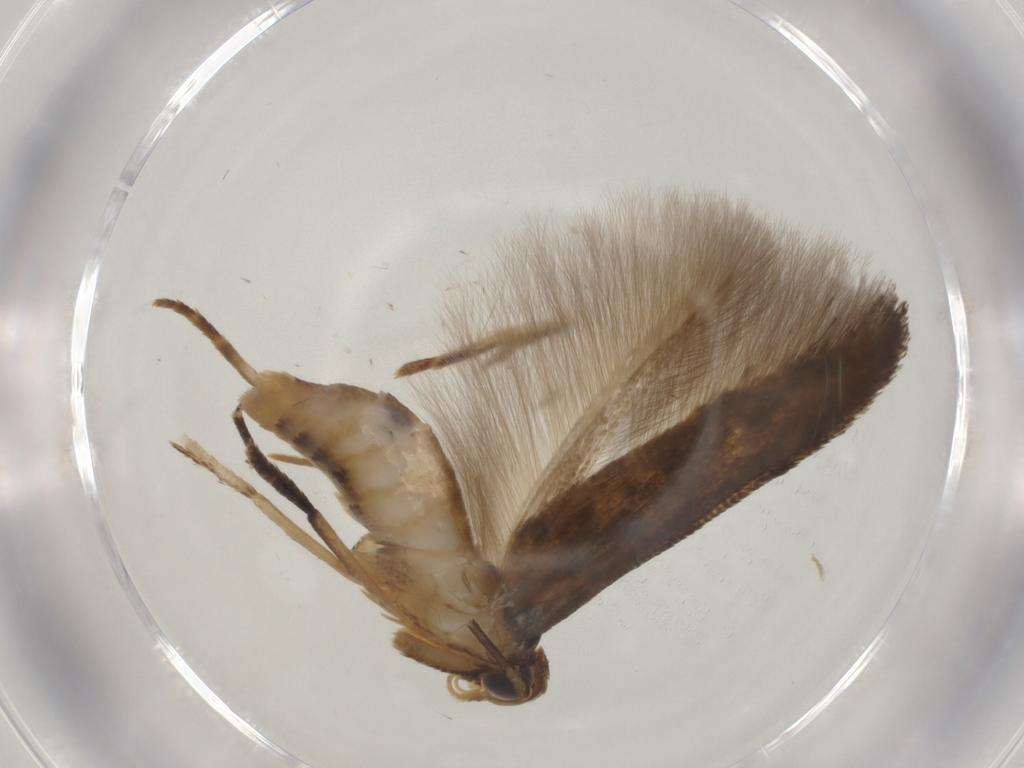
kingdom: Animalia
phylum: Arthropoda
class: Insecta
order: Lepidoptera
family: Cosmopterigidae
